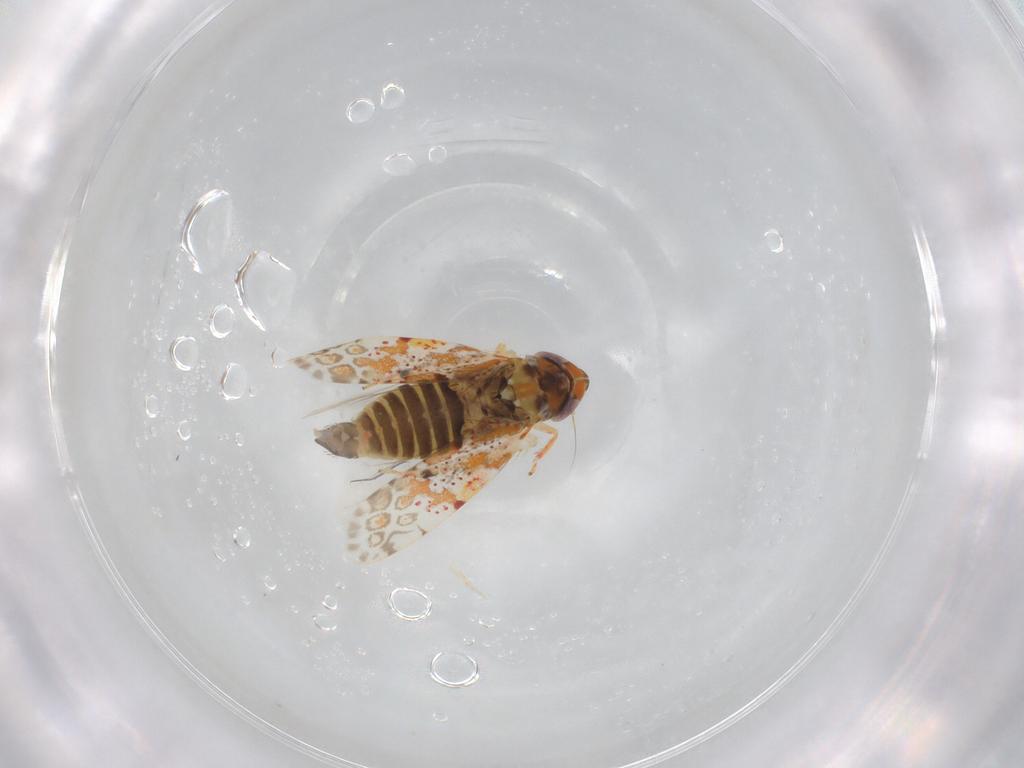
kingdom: Animalia
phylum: Arthropoda
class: Insecta
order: Hemiptera
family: Cicadellidae
